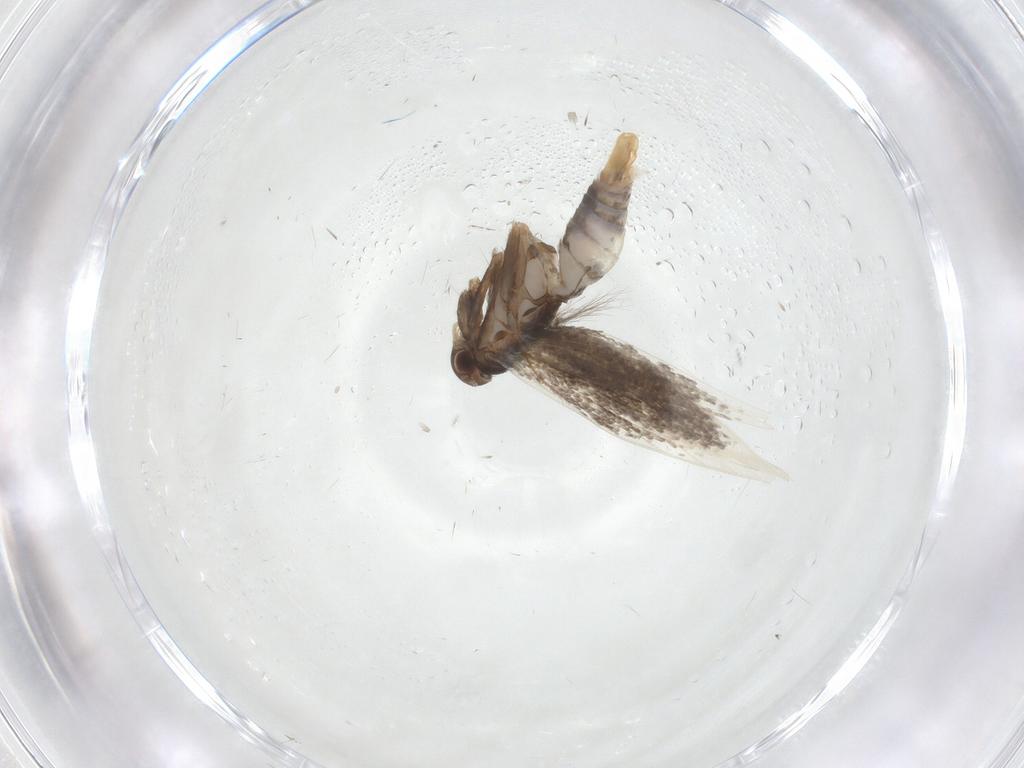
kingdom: Animalia
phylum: Arthropoda
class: Insecta
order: Lepidoptera
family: Elachistidae
